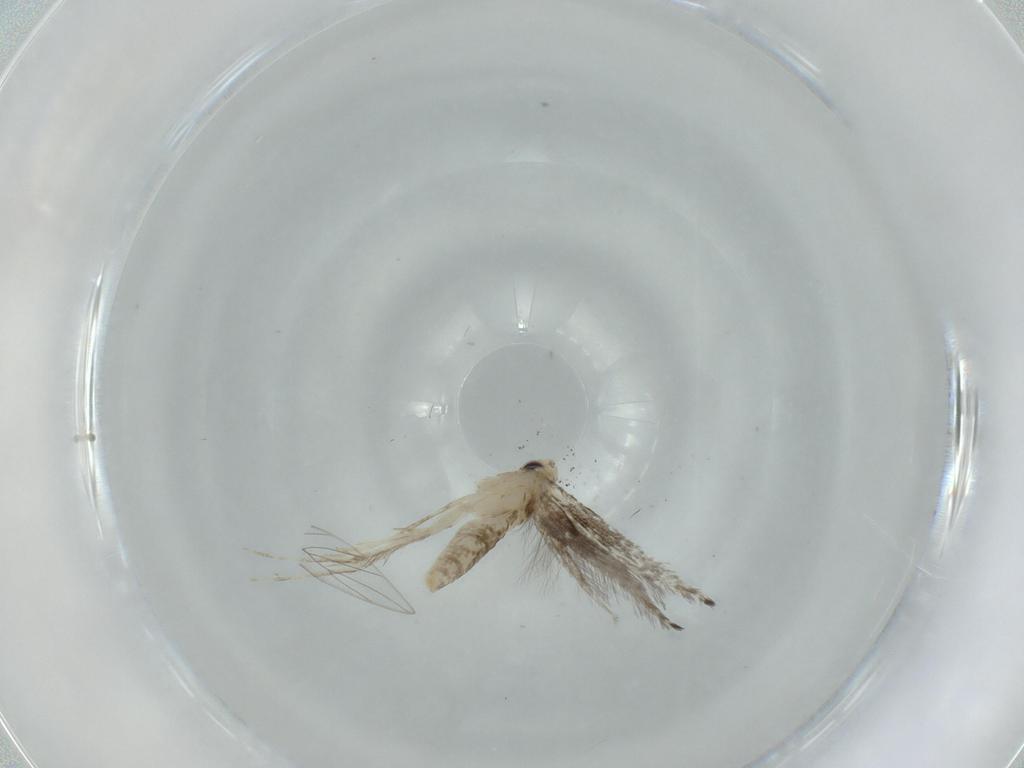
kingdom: Animalia
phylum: Arthropoda
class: Insecta
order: Lepidoptera
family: Gracillariidae
